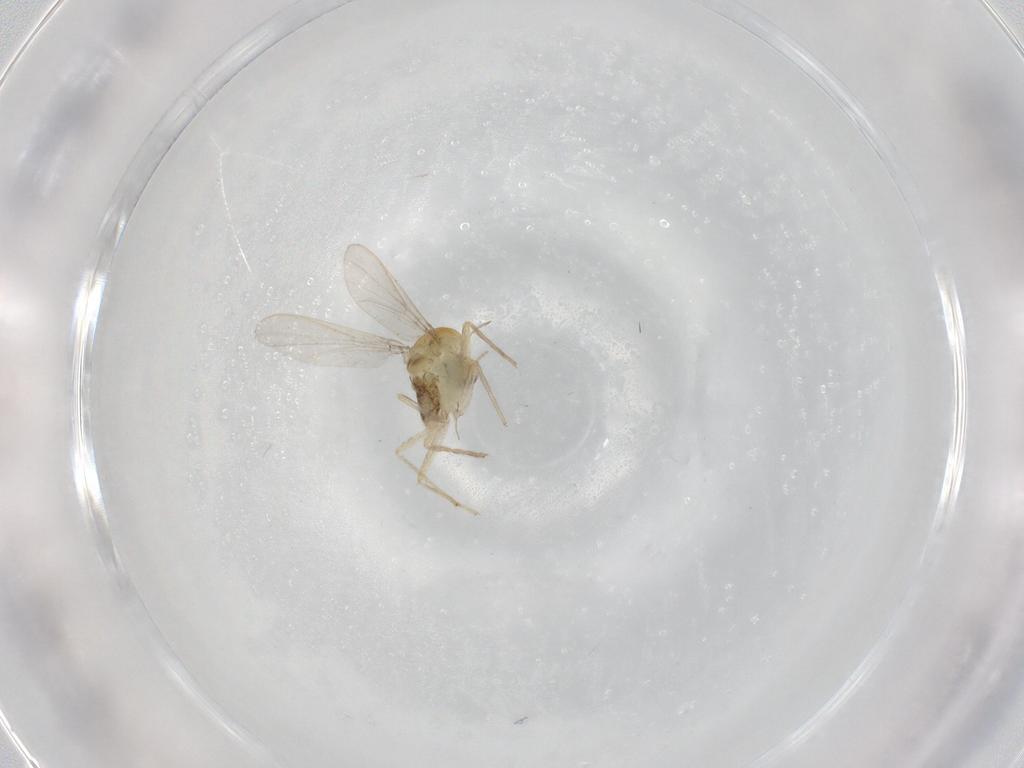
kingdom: Animalia
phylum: Arthropoda
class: Insecta
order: Diptera
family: Chironomidae
